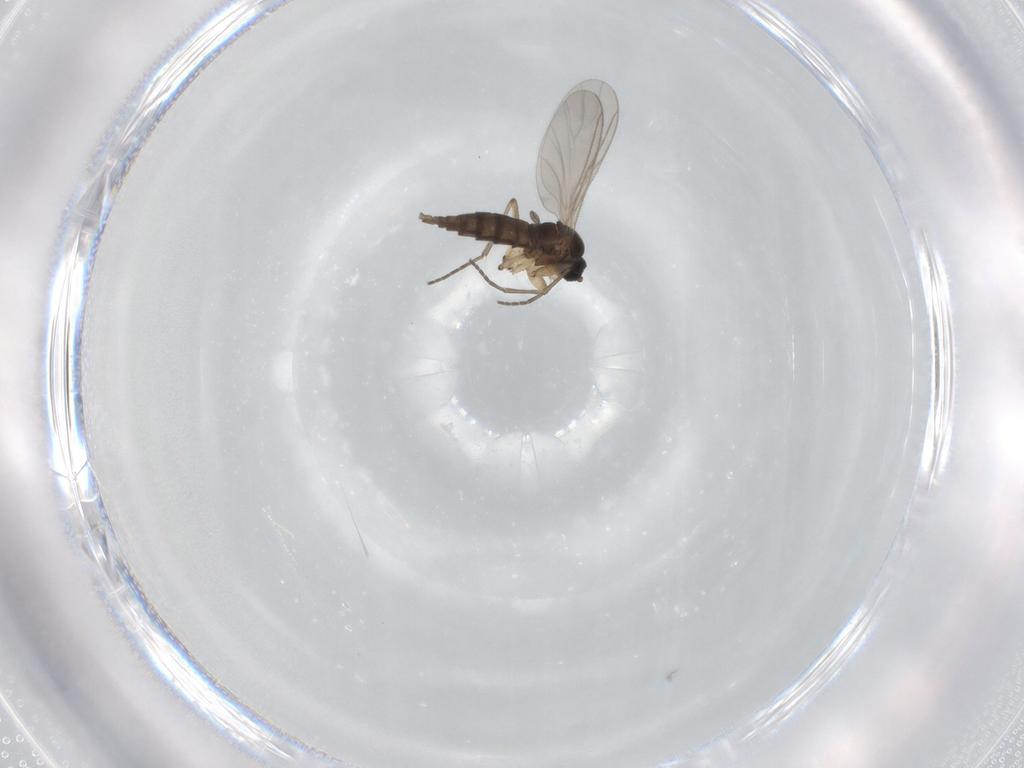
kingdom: Animalia
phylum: Arthropoda
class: Insecta
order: Diptera
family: Sciaridae
